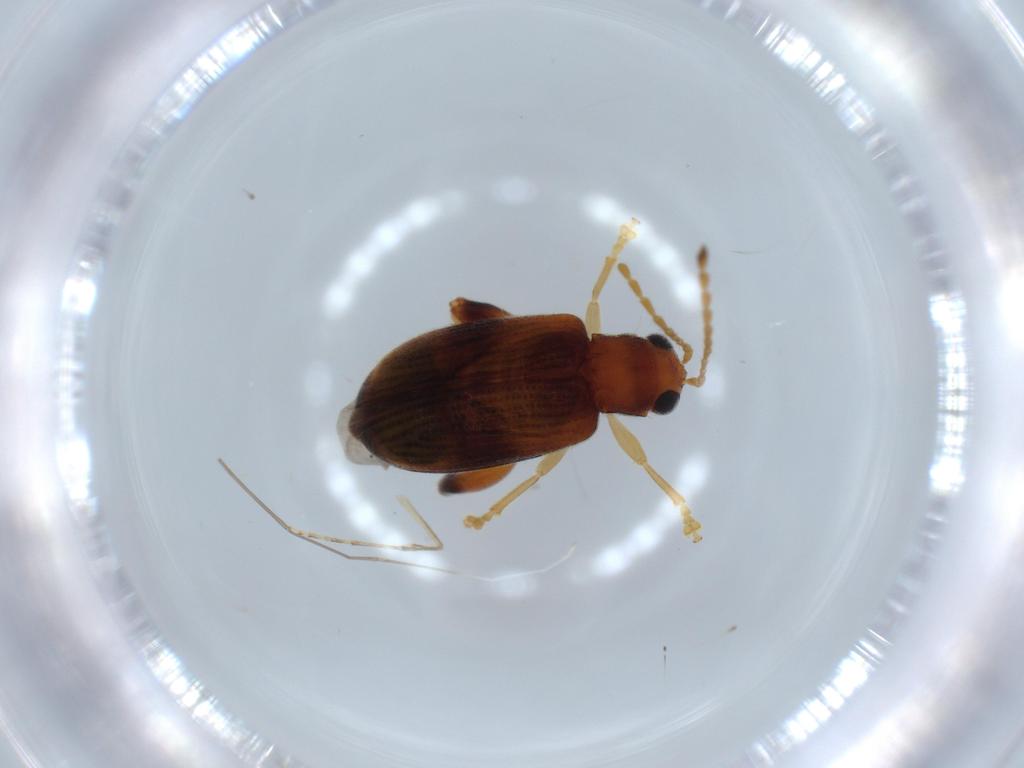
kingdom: Animalia
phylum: Arthropoda
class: Insecta
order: Coleoptera
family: Chrysomelidae
